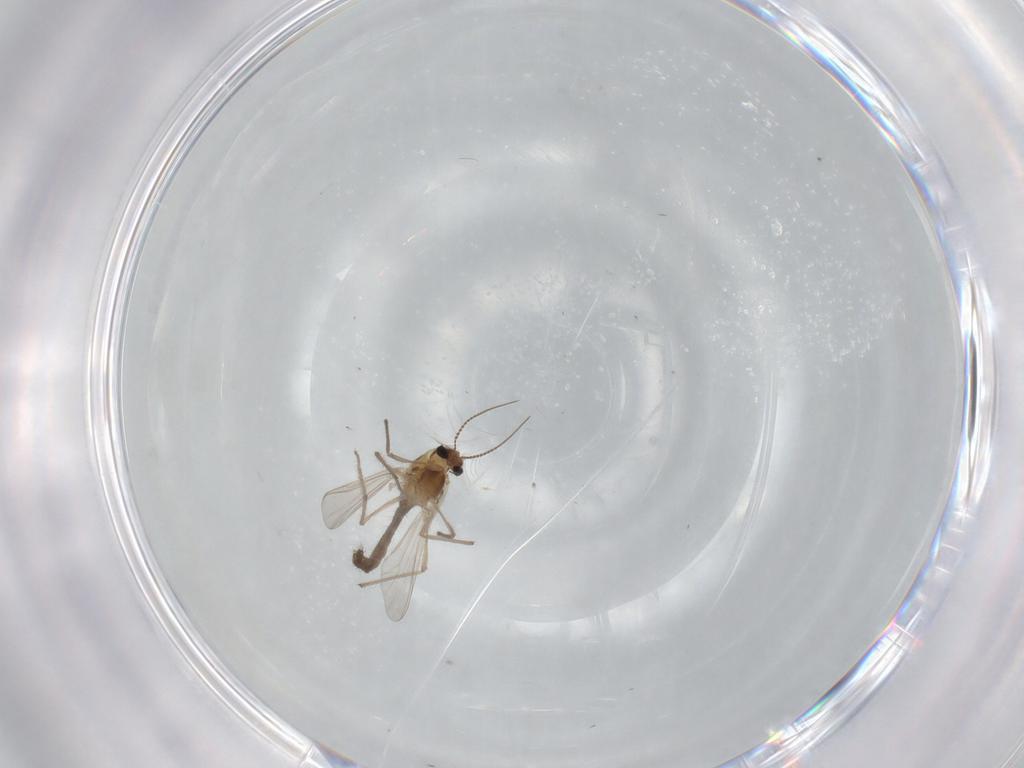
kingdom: Animalia
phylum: Arthropoda
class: Insecta
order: Diptera
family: Chironomidae
